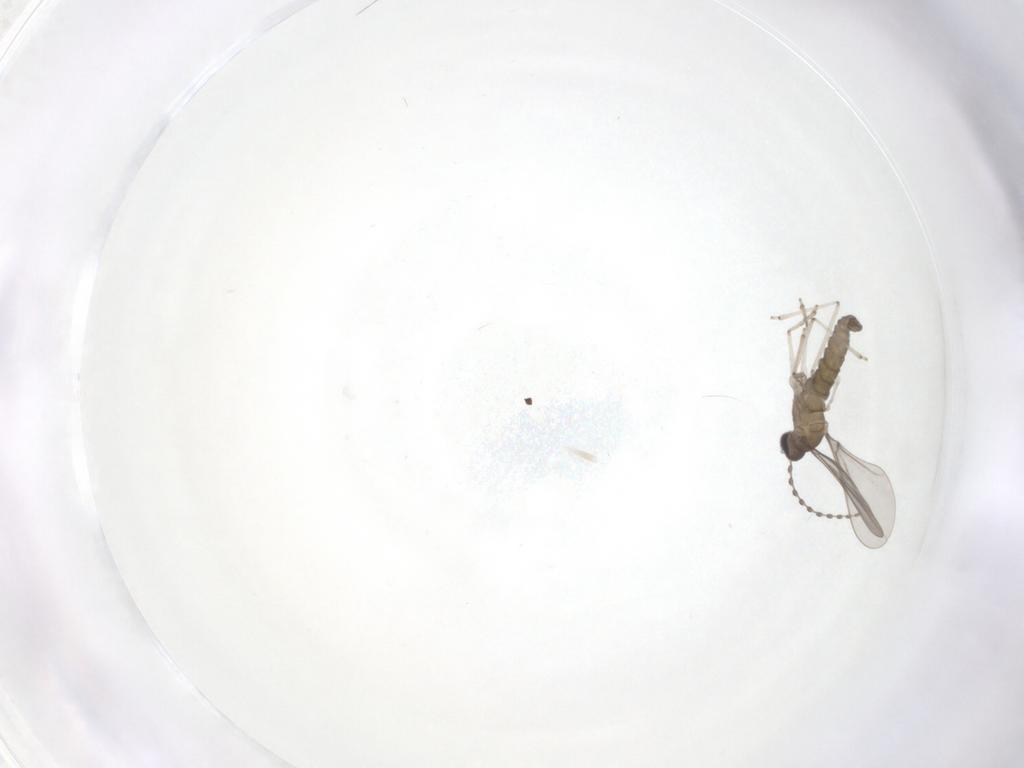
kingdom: Animalia
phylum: Arthropoda
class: Insecta
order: Diptera
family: Cecidomyiidae
